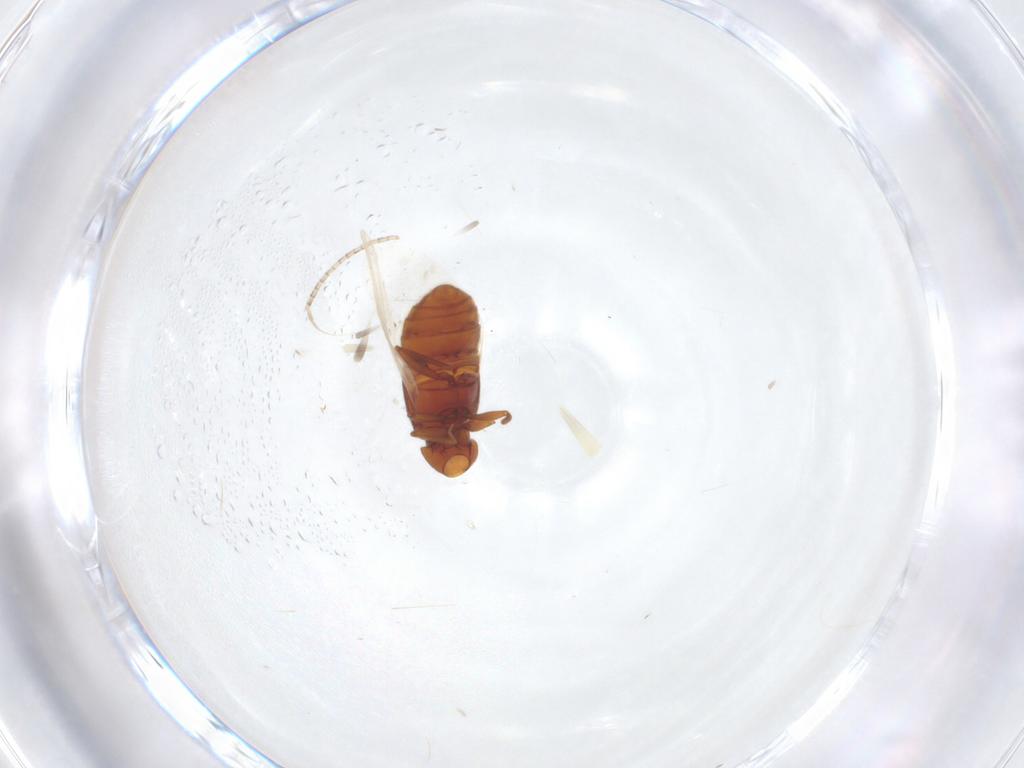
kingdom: Animalia
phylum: Arthropoda
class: Insecta
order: Coleoptera
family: Staphylinidae
